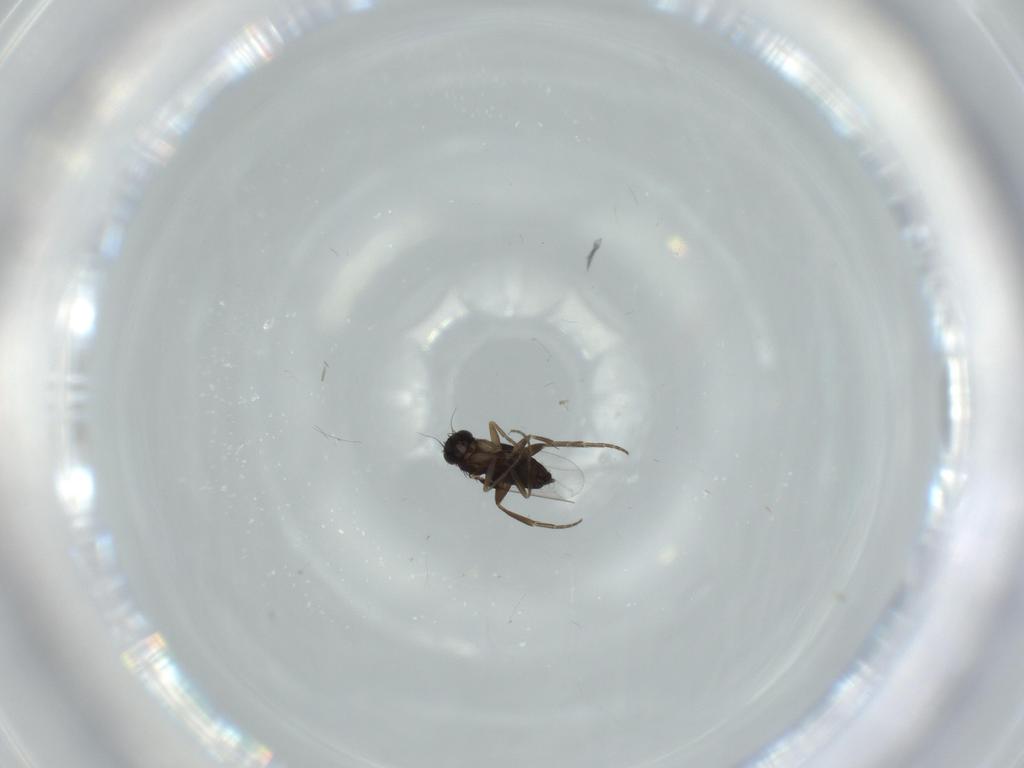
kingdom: Animalia
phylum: Arthropoda
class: Insecta
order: Diptera
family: Phoridae
